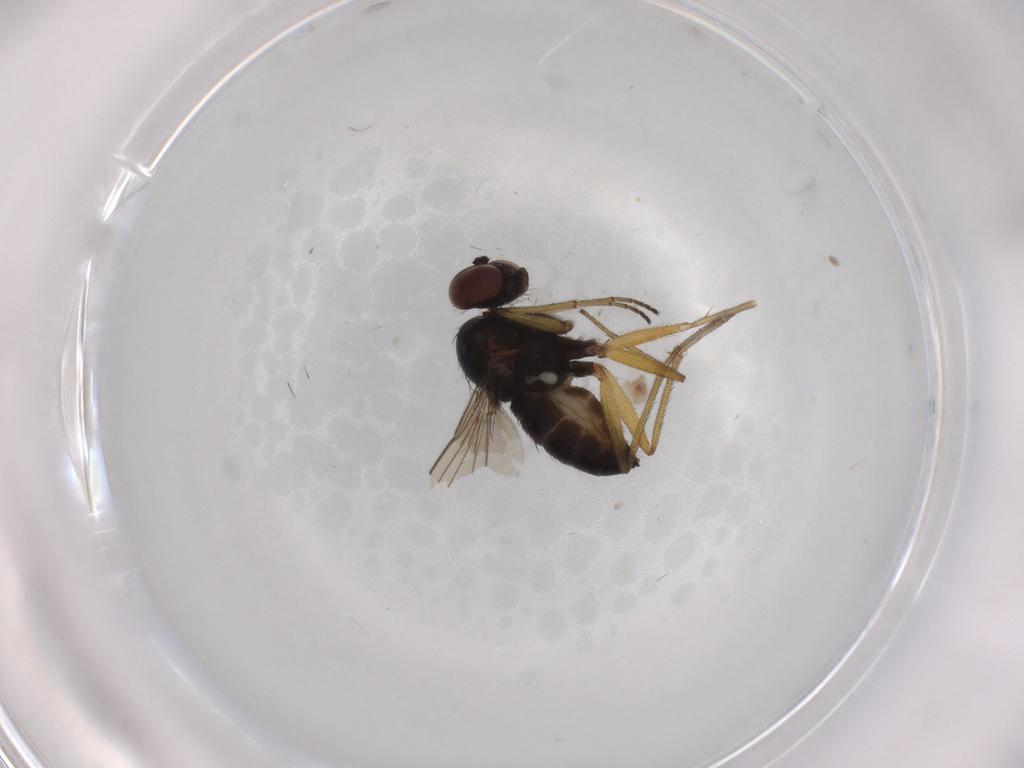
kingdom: Animalia
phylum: Arthropoda
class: Insecta
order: Diptera
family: Dolichopodidae
